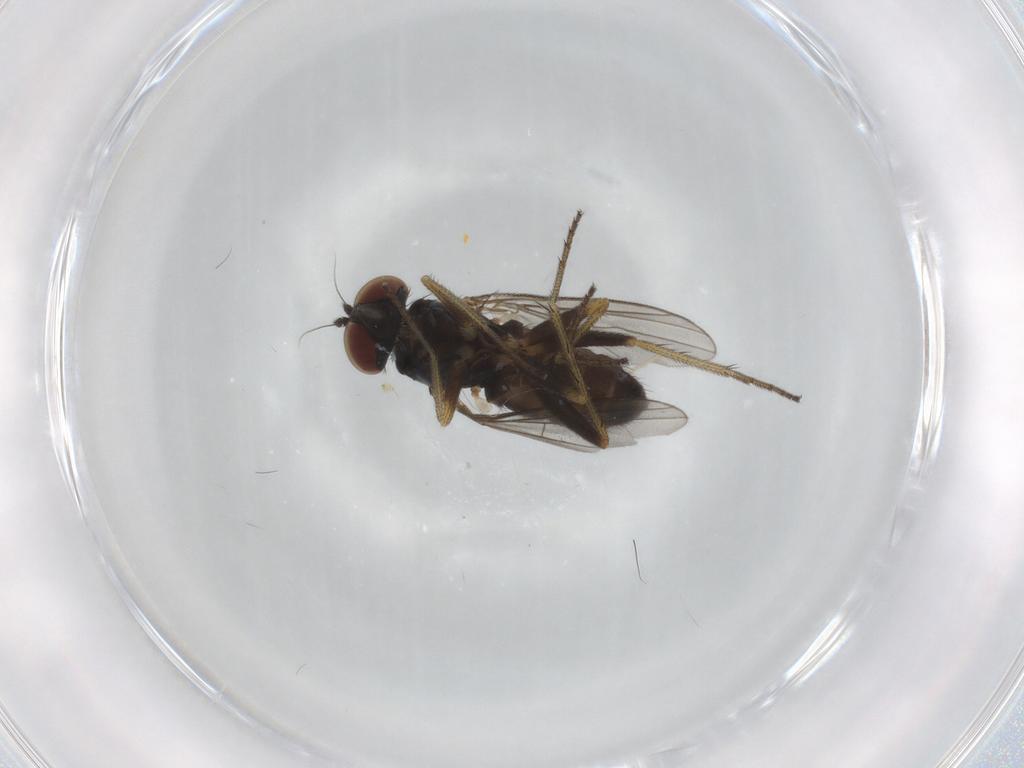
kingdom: Animalia
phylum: Arthropoda
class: Insecta
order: Diptera
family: Dolichopodidae
